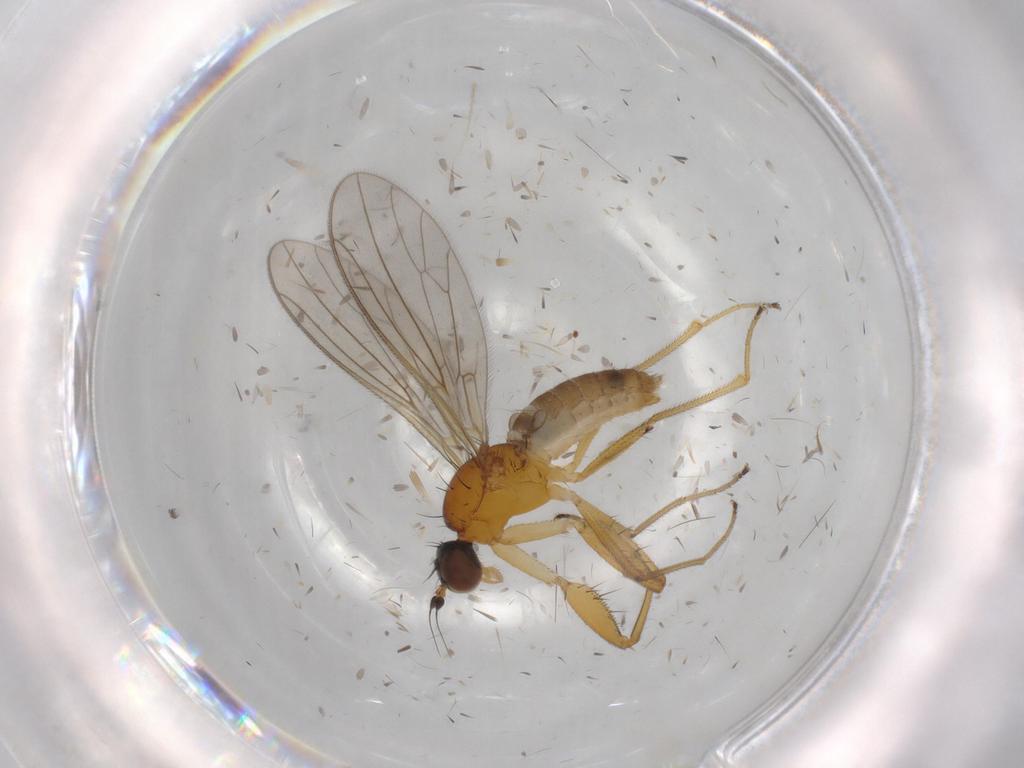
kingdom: Animalia
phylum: Arthropoda
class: Insecta
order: Diptera
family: Empididae
